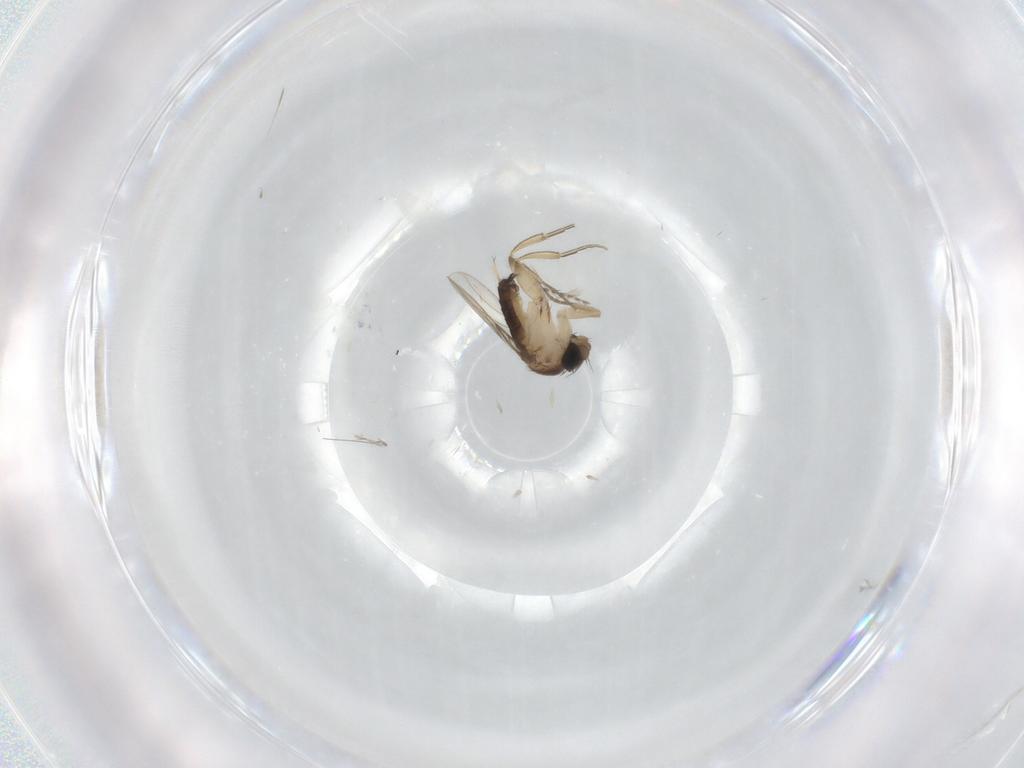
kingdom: Animalia
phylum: Arthropoda
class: Insecta
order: Diptera
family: Phoridae
